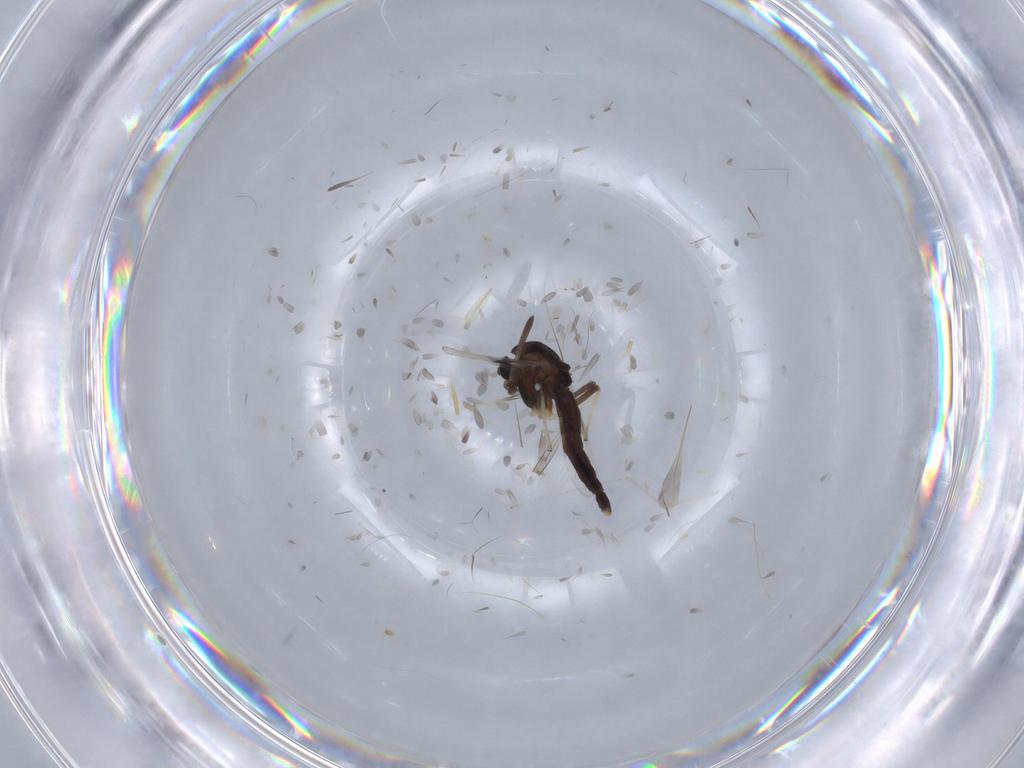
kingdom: Animalia
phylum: Arthropoda
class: Insecta
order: Diptera
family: Chironomidae
